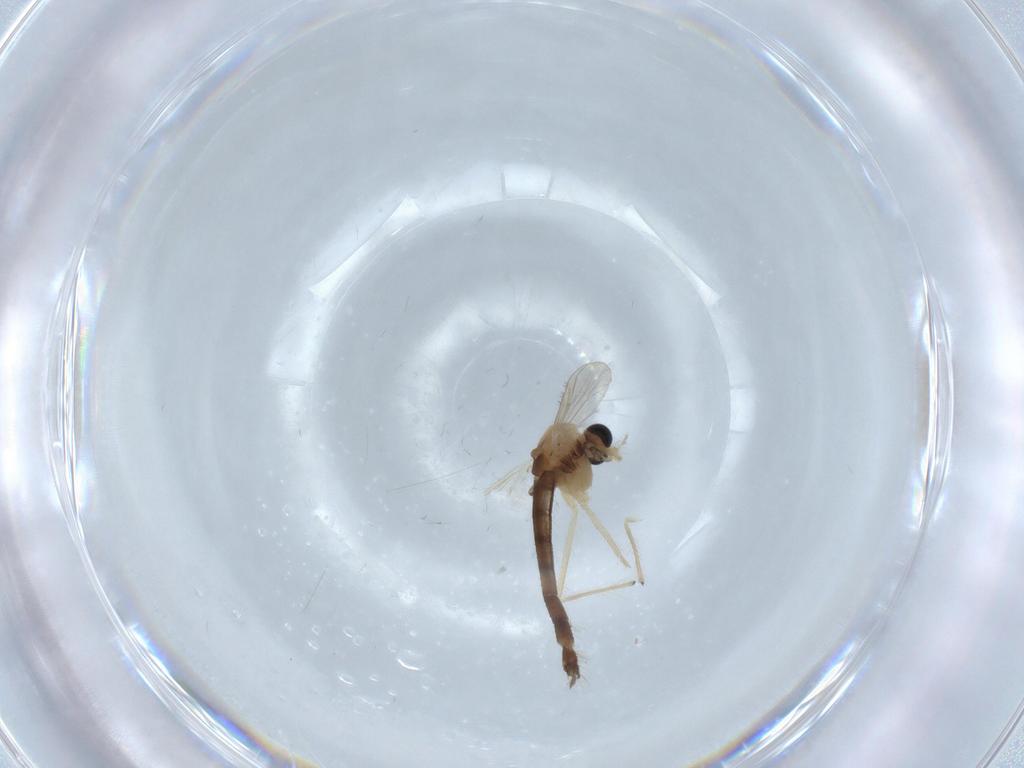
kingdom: Animalia
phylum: Arthropoda
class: Insecta
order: Diptera
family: Chironomidae
